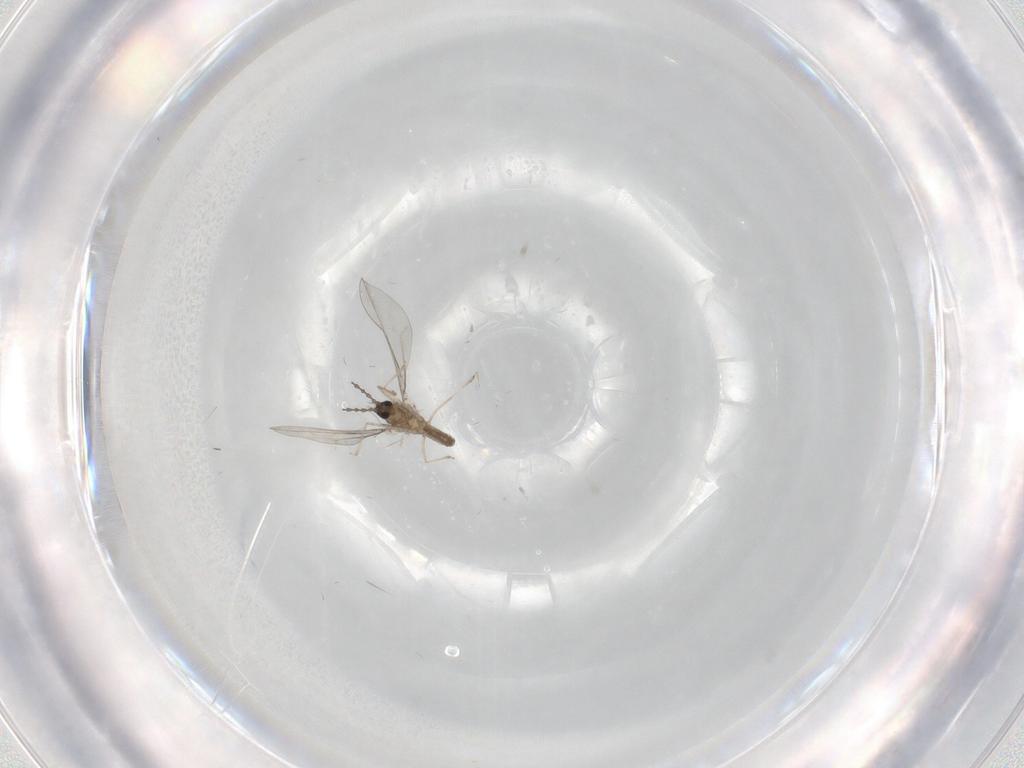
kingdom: Animalia
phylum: Arthropoda
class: Insecta
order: Diptera
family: Cecidomyiidae
